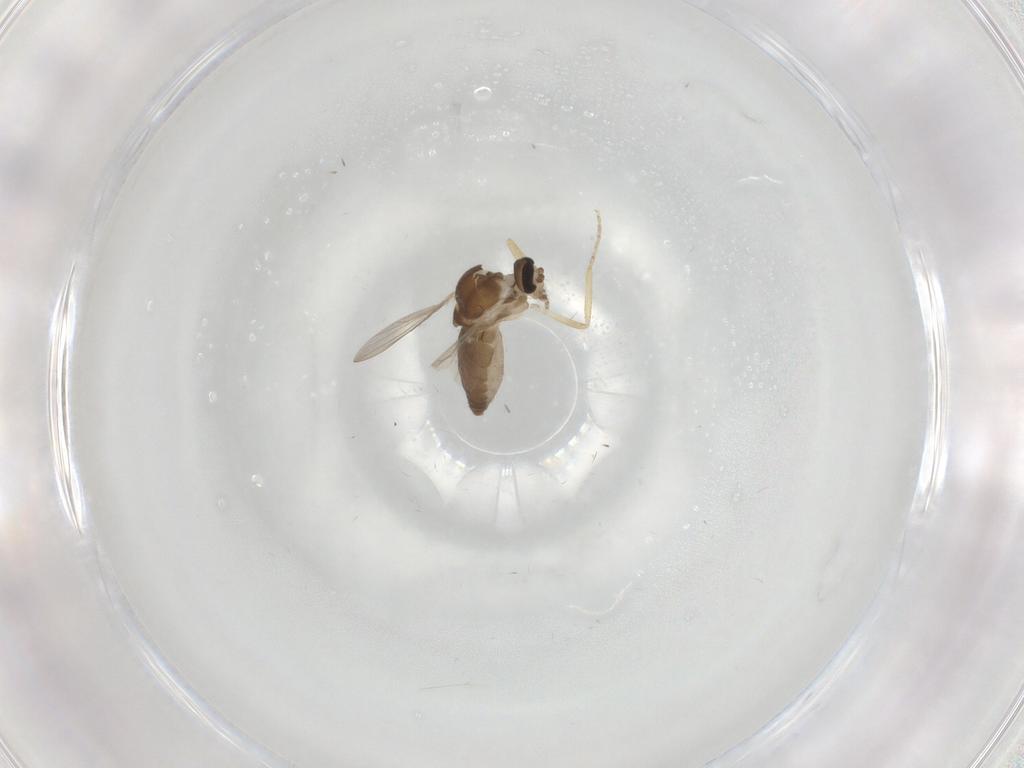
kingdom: Animalia
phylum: Arthropoda
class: Insecta
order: Diptera
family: Ceratopogonidae
